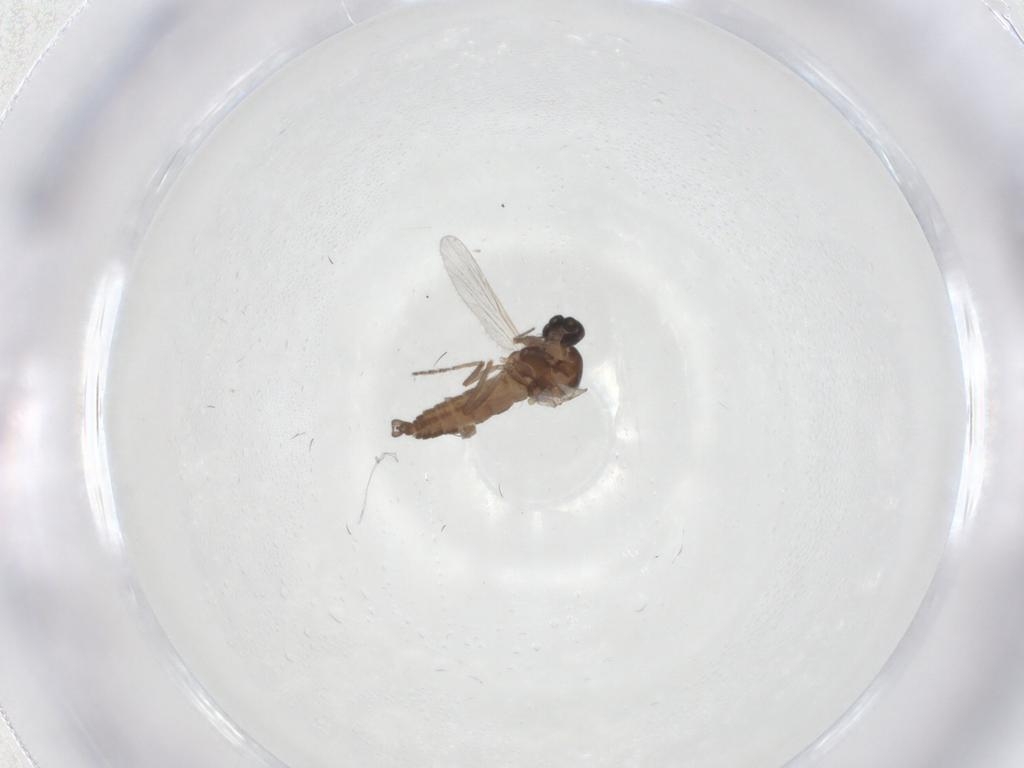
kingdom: Animalia
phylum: Arthropoda
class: Insecta
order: Diptera
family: Ceratopogonidae
